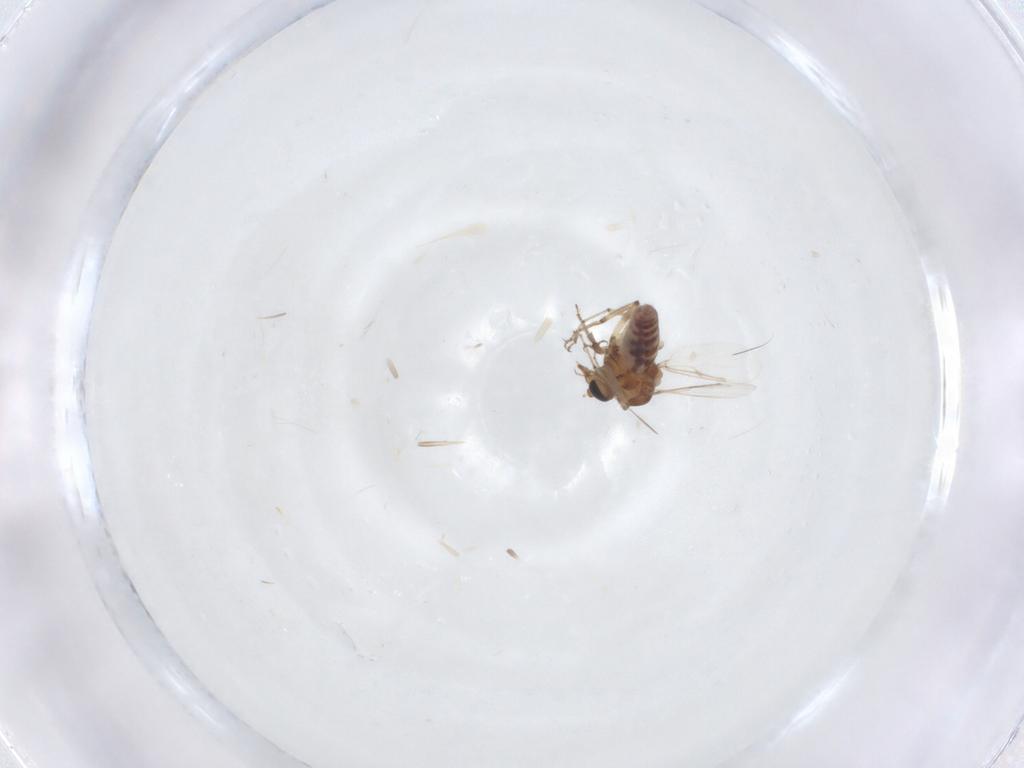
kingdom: Animalia
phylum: Arthropoda
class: Insecta
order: Diptera
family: Ceratopogonidae
